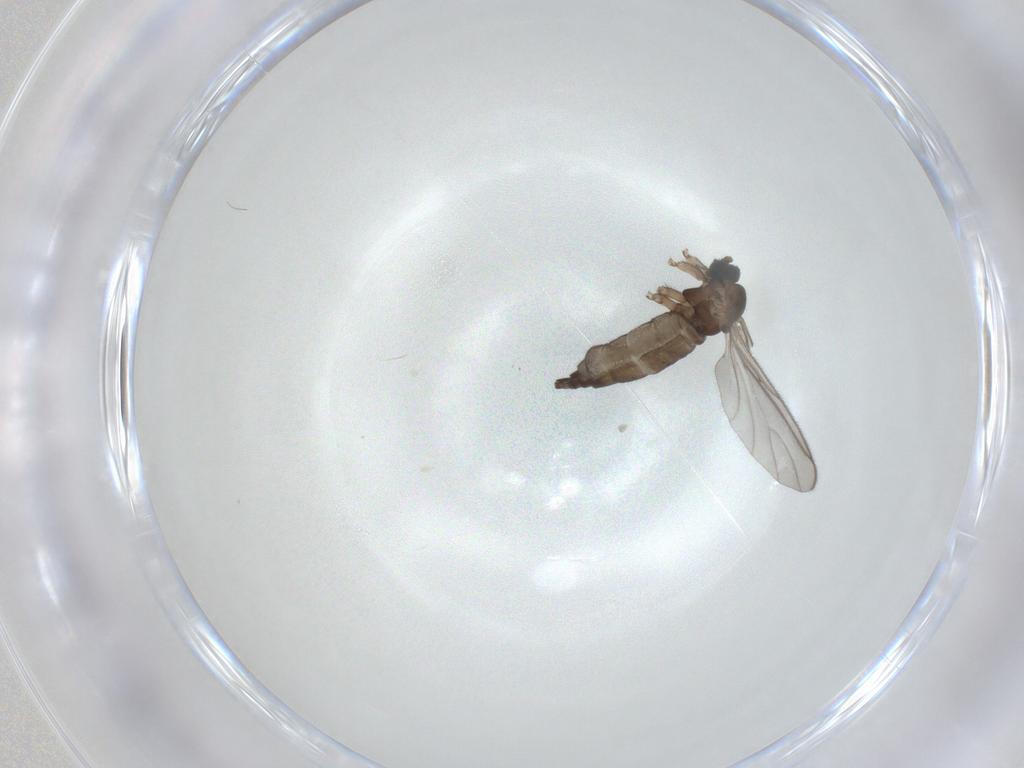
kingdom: Animalia
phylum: Arthropoda
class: Insecta
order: Diptera
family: Sciaridae
